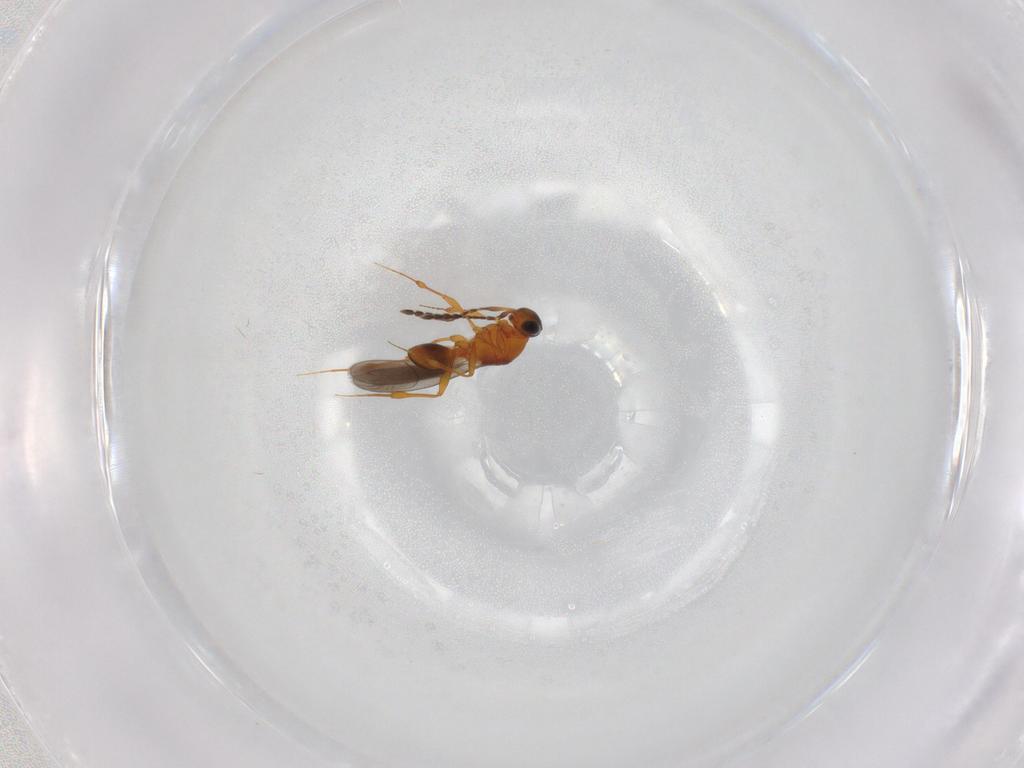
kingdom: Animalia
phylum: Arthropoda
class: Insecta
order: Hymenoptera
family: Platygastridae
